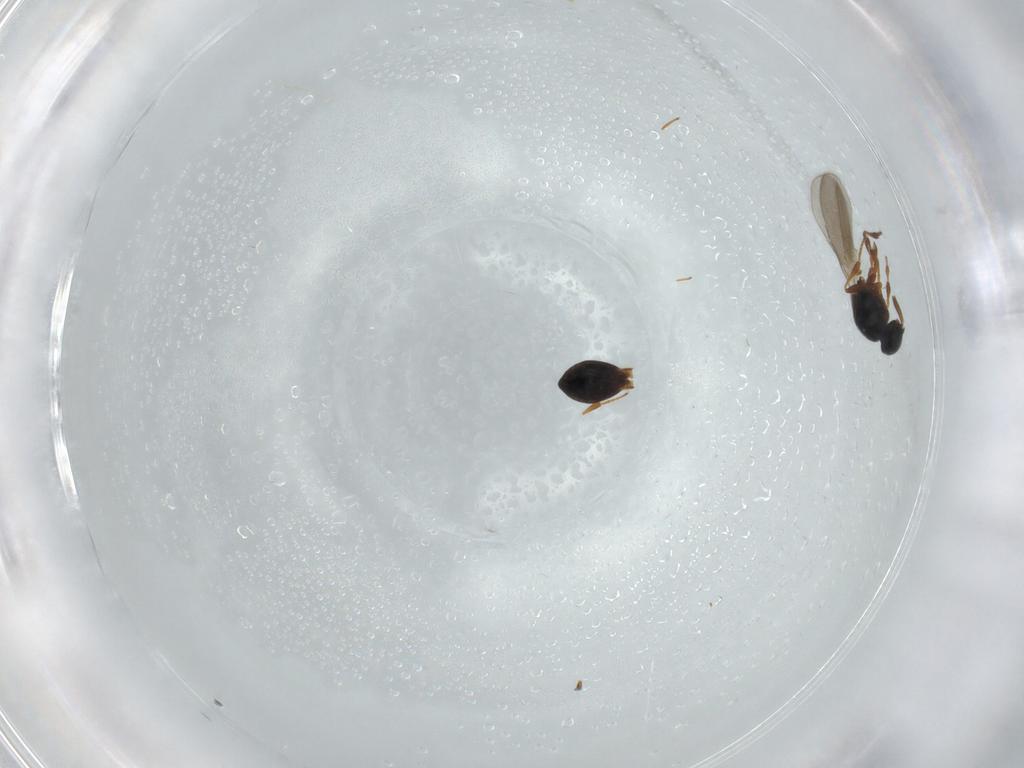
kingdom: Animalia
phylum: Arthropoda
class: Insecta
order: Hymenoptera
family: Platygastridae
